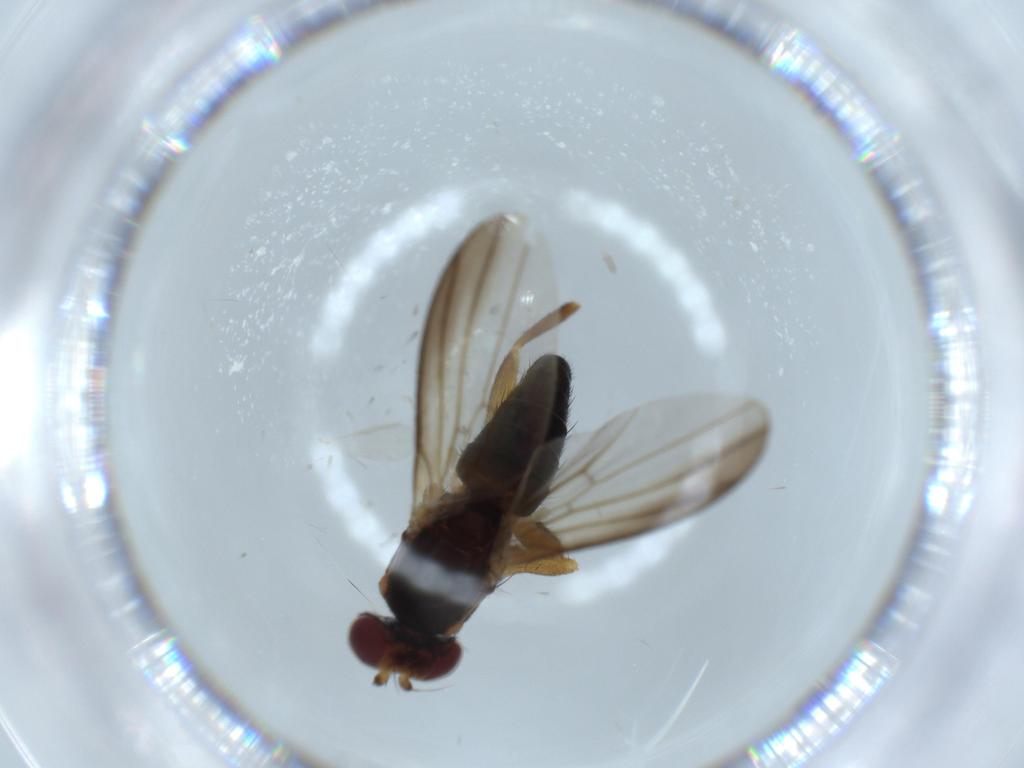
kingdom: Animalia
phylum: Arthropoda
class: Insecta
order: Diptera
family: Clusiidae
